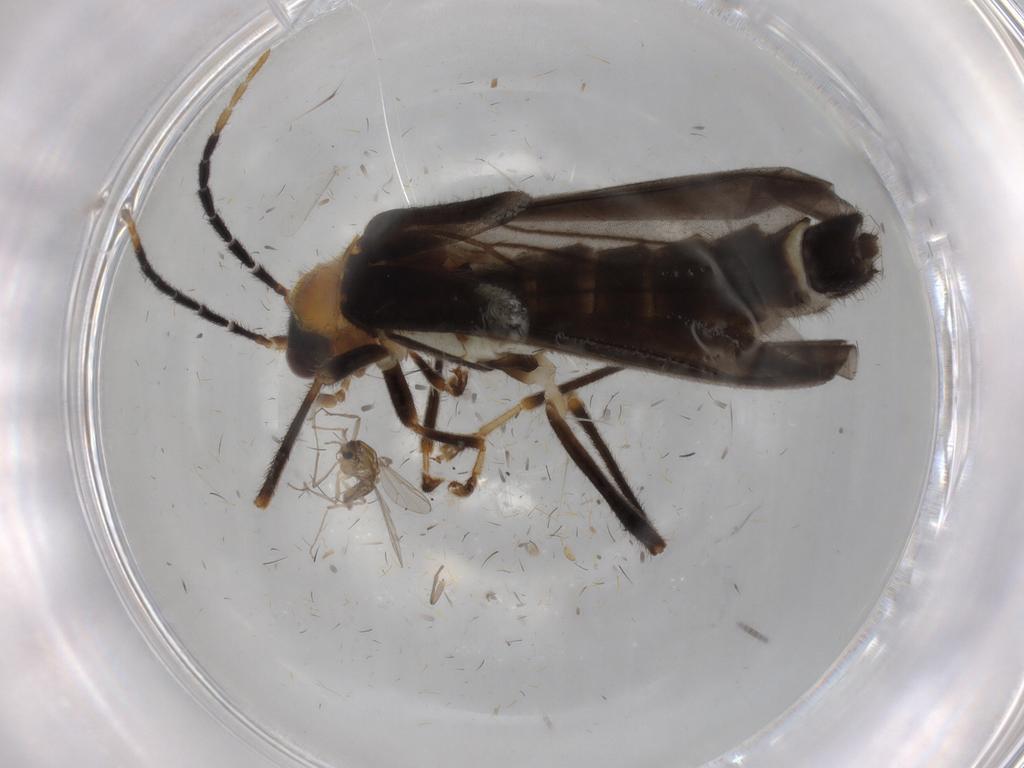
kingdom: Animalia
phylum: Arthropoda
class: Insecta
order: Coleoptera
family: Cantharidae
